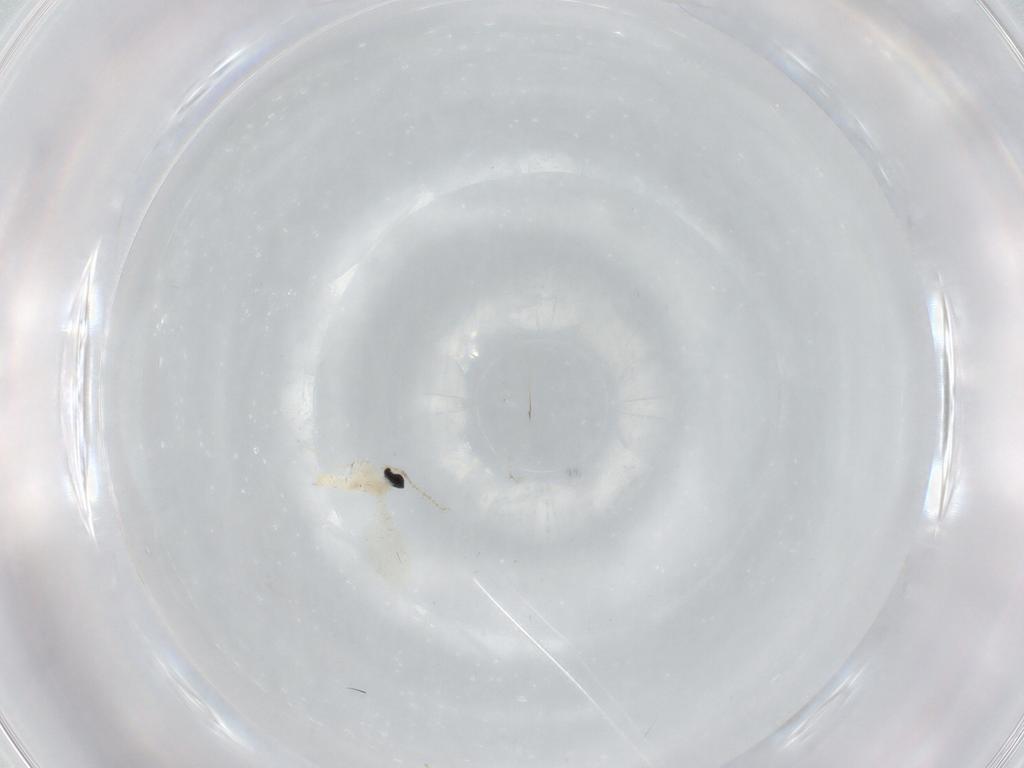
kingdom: Animalia
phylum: Arthropoda
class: Insecta
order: Diptera
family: Cecidomyiidae
